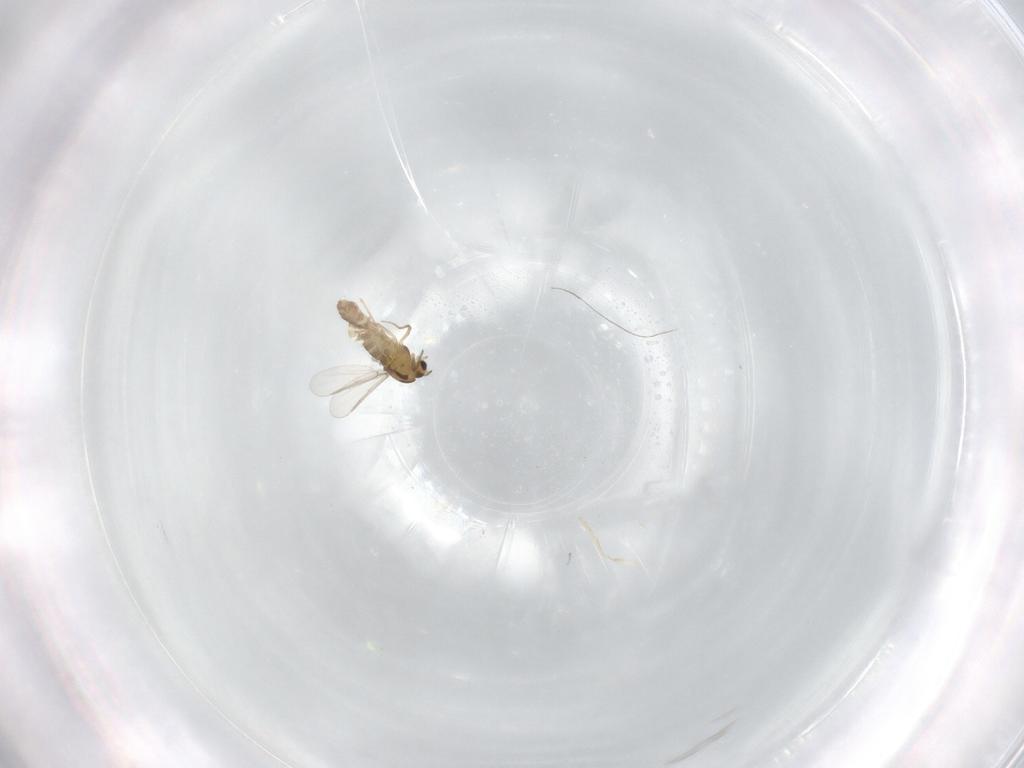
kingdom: Animalia
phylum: Arthropoda
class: Insecta
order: Diptera
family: Chironomidae
